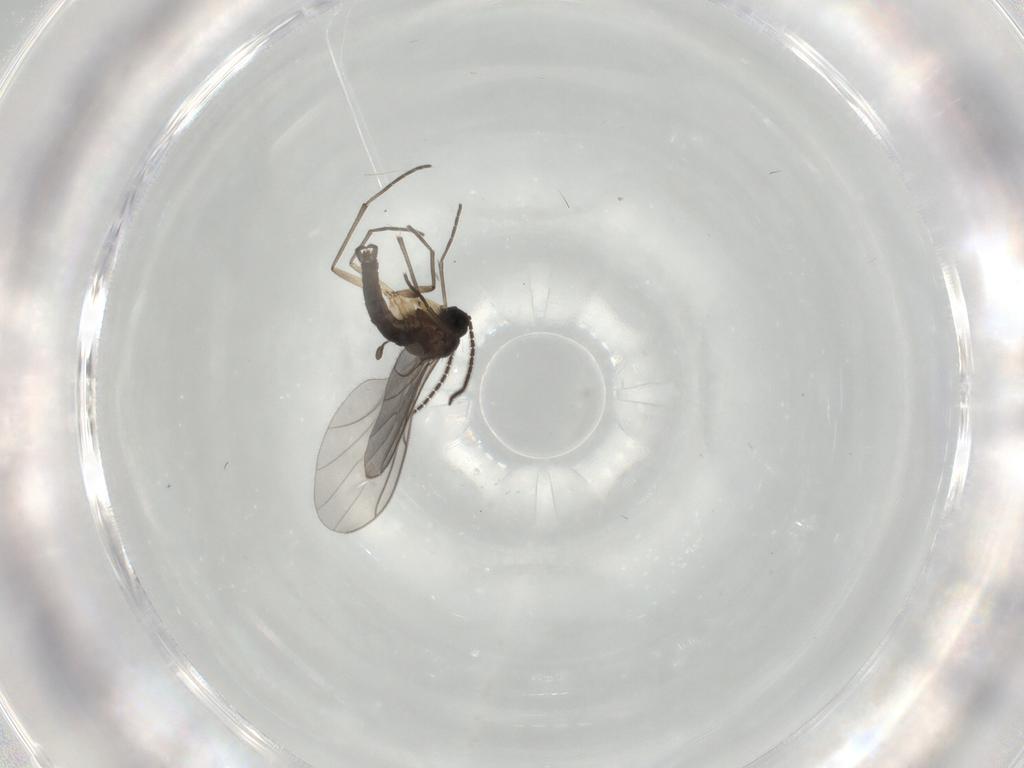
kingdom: Animalia
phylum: Arthropoda
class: Insecta
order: Diptera
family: Sciaridae
